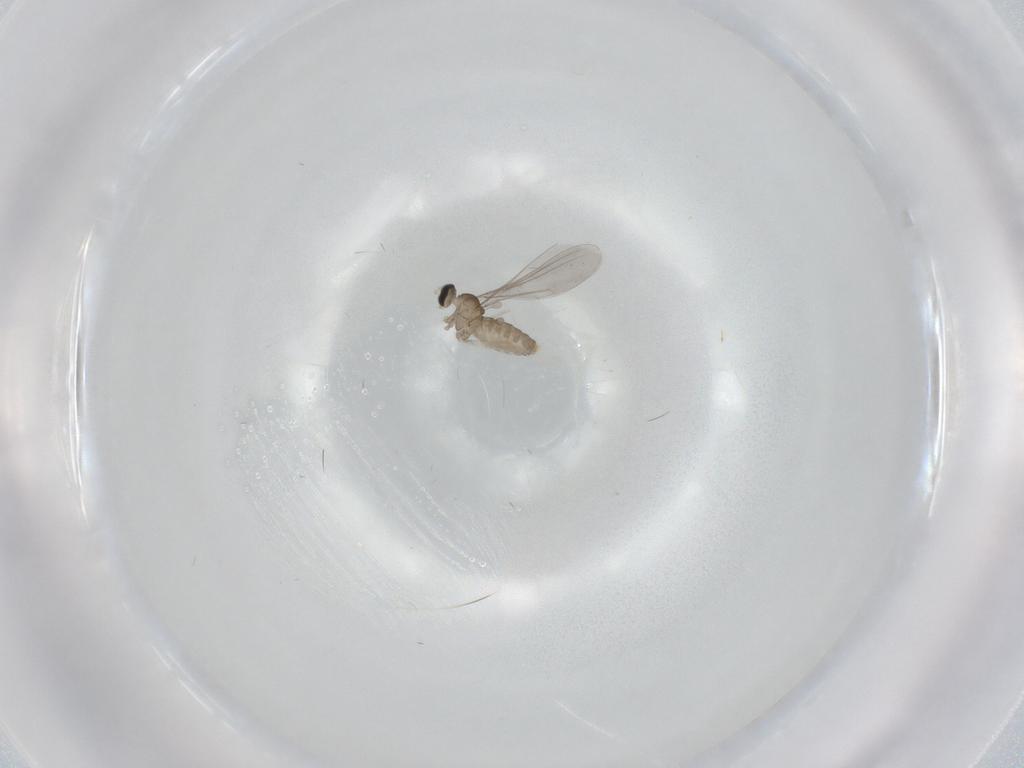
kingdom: Animalia
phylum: Arthropoda
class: Insecta
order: Diptera
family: Cecidomyiidae
